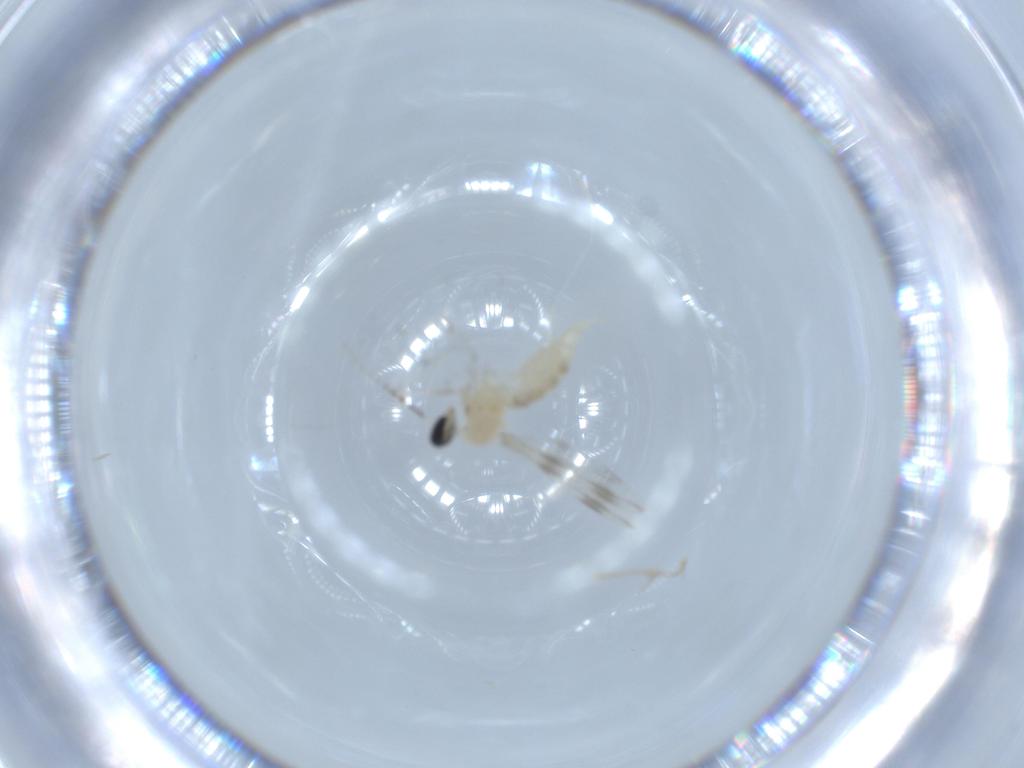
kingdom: Animalia
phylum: Arthropoda
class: Insecta
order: Diptera
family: Cecidomyiidae
